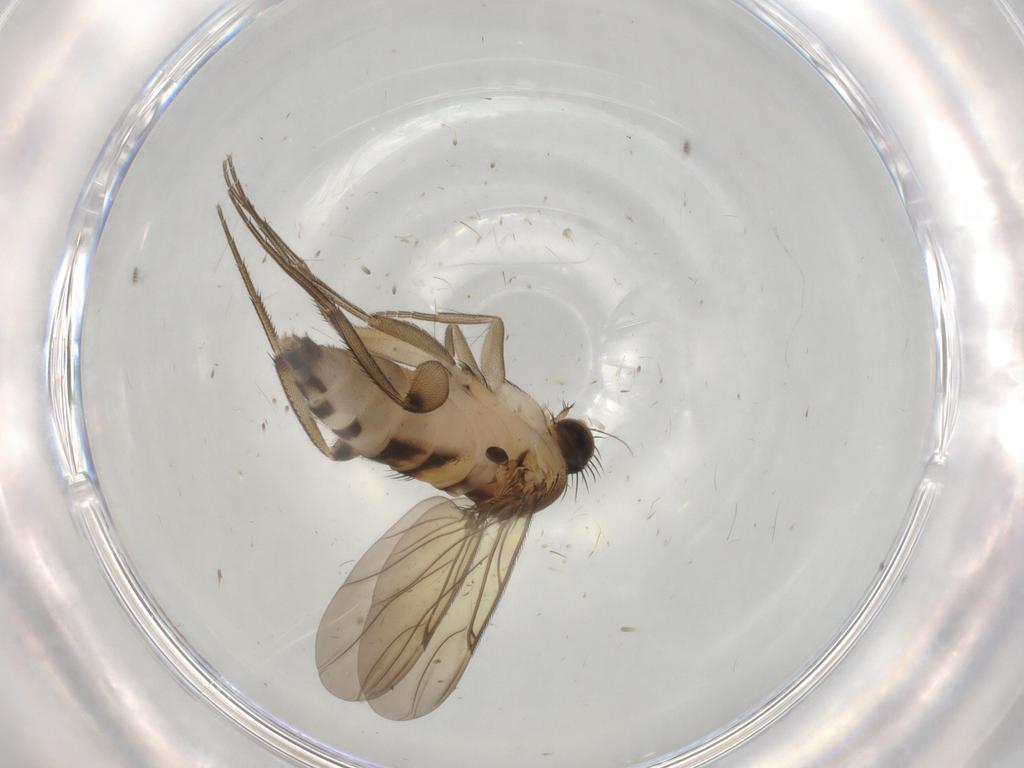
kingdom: Animalia
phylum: Arthropoda
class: Insecta
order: Diptera
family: Phoridae
